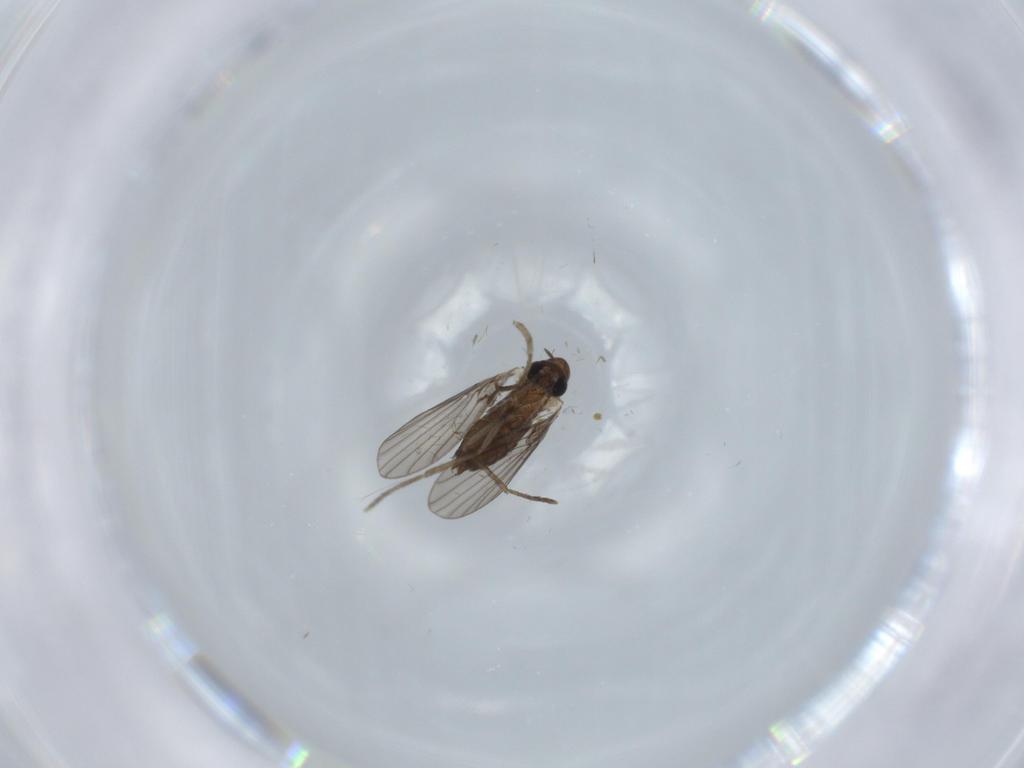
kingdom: Animalia
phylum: Arthropoda
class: Insecta
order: Diptera
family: Psychodidae
